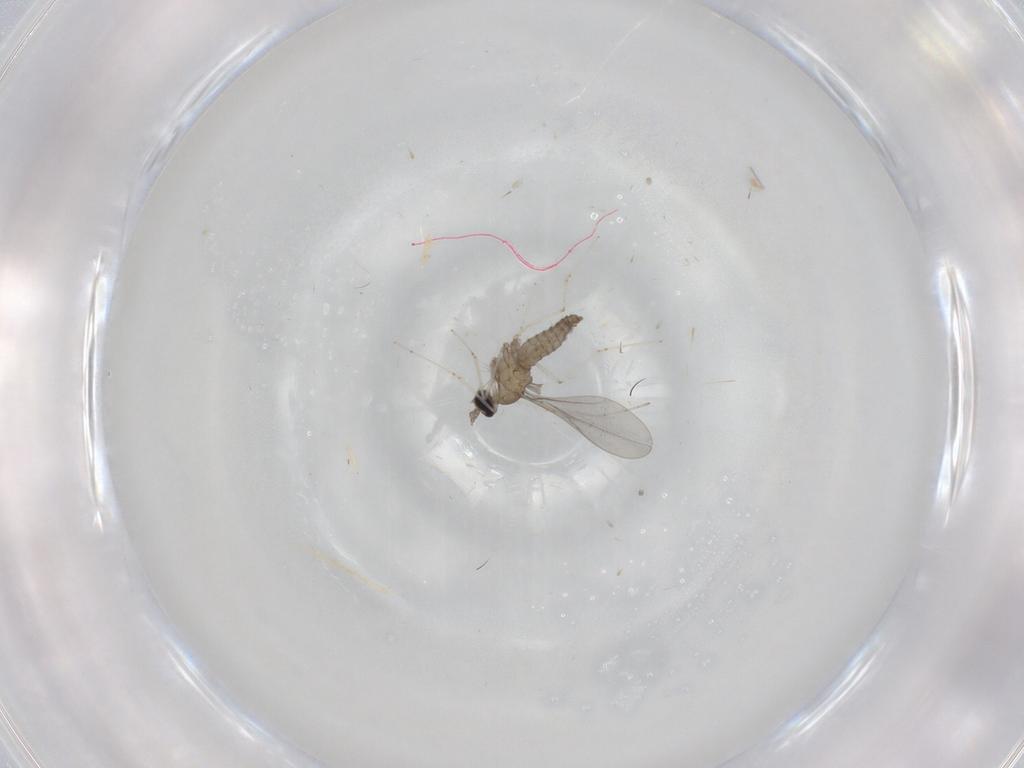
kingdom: Animalia
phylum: Arthropoda
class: Insecta
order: Diptera
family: Cecidomyiidae
